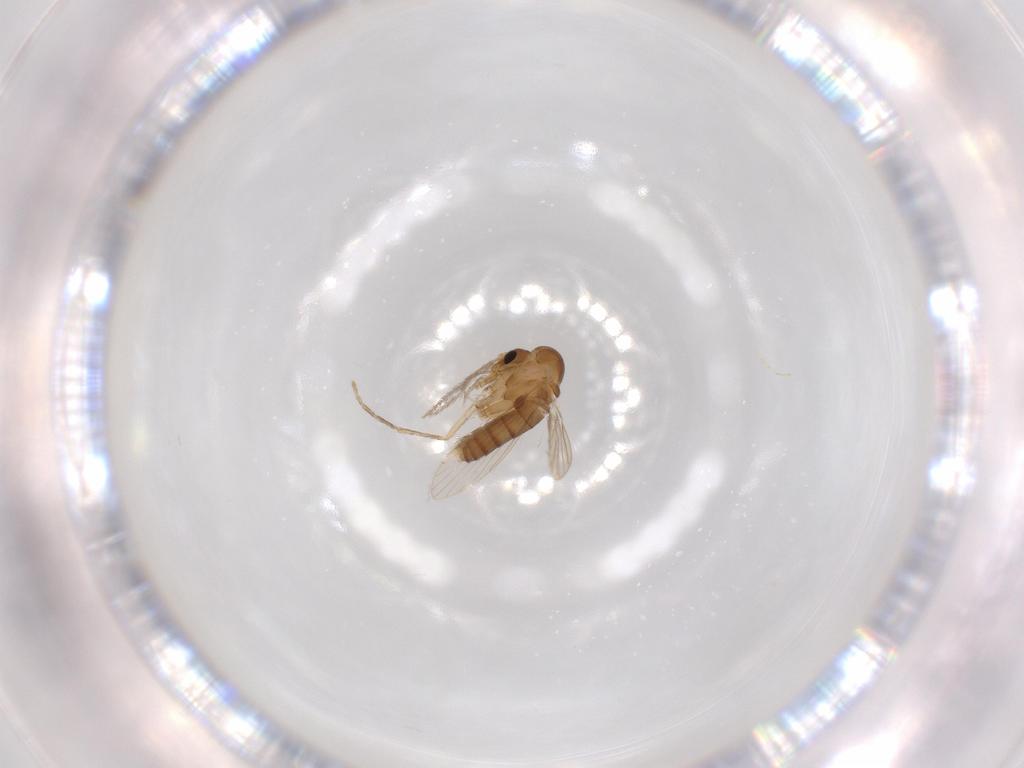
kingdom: Animalia
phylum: Arthropoda
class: Insecta
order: Diptera
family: Psychodidae
